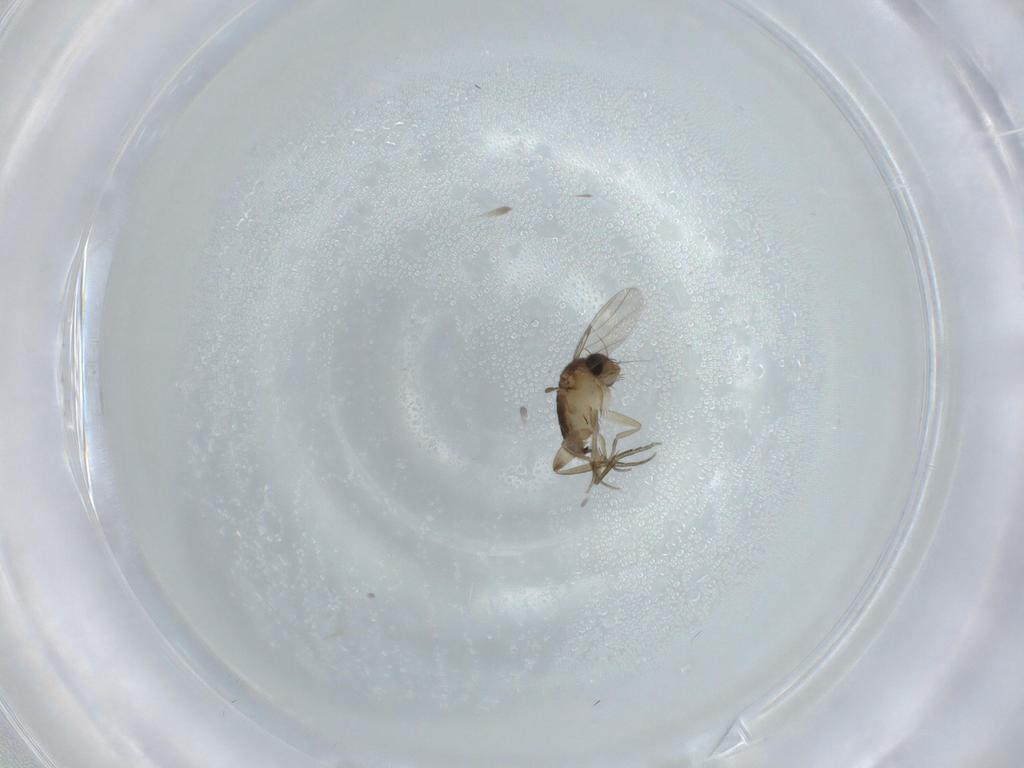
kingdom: Animalia
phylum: Arthropoda
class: Insecta
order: Diptera
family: Phoridae
